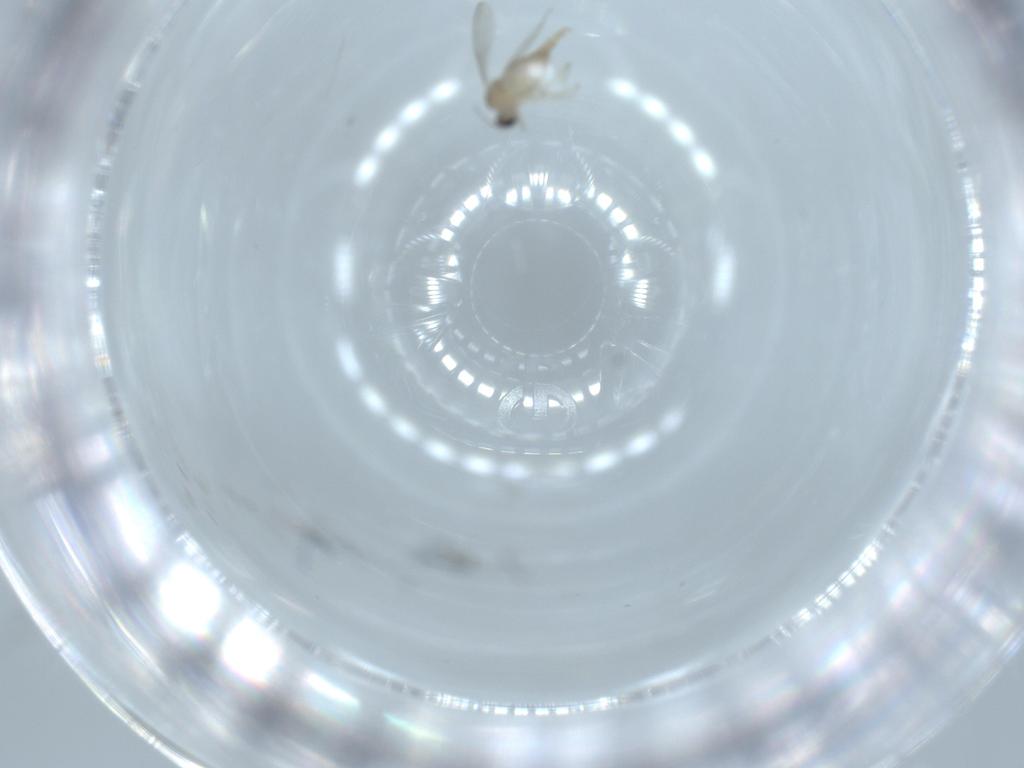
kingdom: Animalia
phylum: Arthropoda
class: Insecta
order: Diptera
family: Cecidomyiidae
